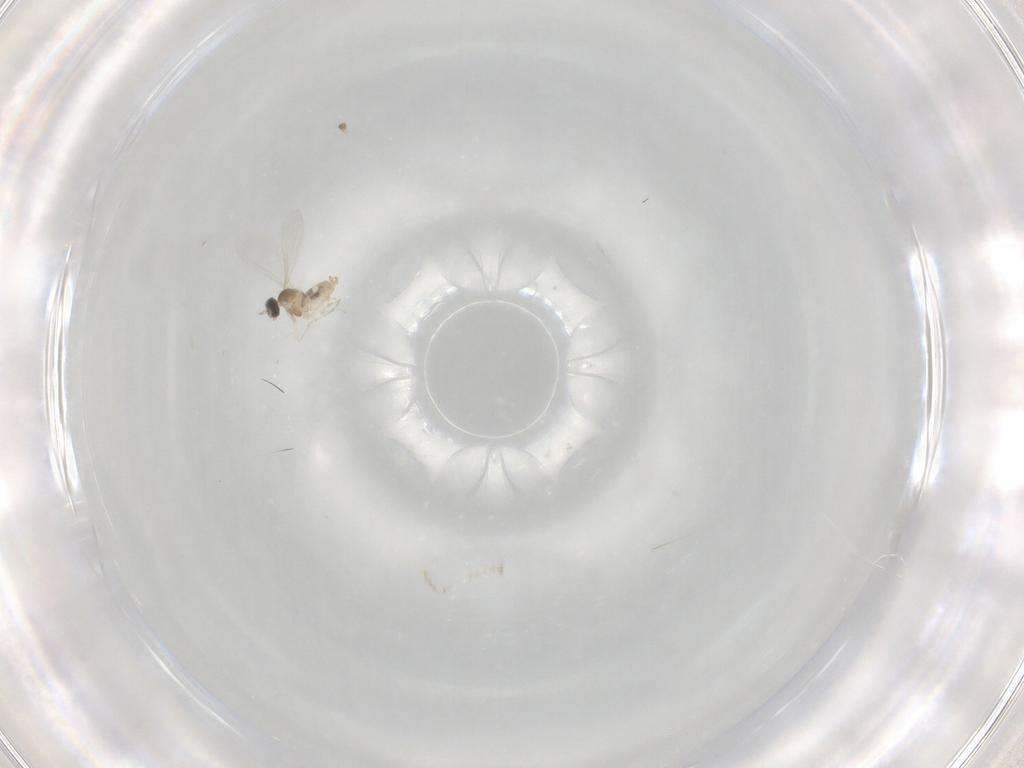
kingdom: Animalia
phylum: Arthropoda
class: Insecta
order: Diptera
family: Cecidomyiidae
